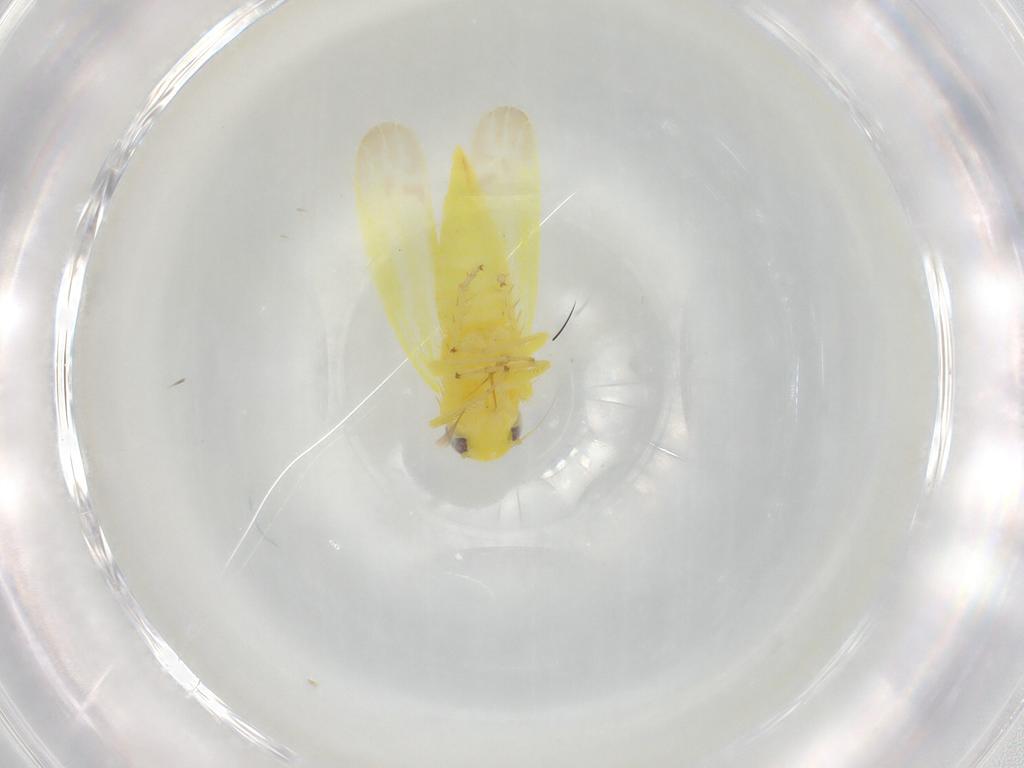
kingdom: Animalia
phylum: Arthropoda
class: Insecta
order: Hemiptera
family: Cicadellidae
